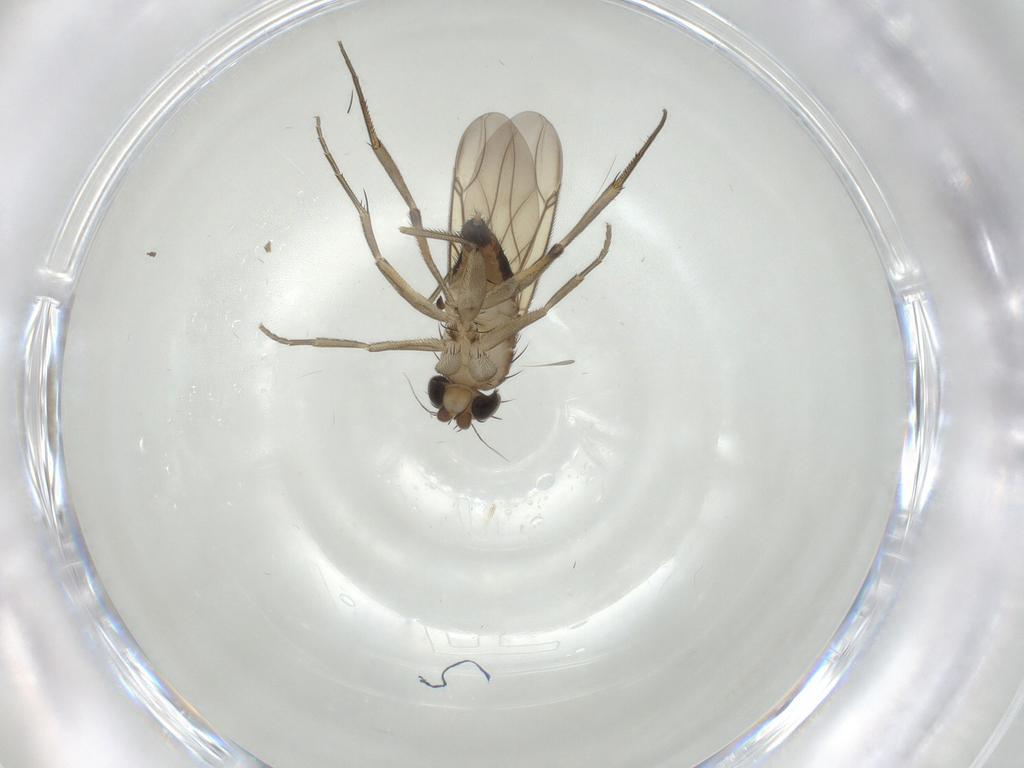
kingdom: Animalia
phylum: Arthropoda
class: Insecta
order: Diptera
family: Phoridae
